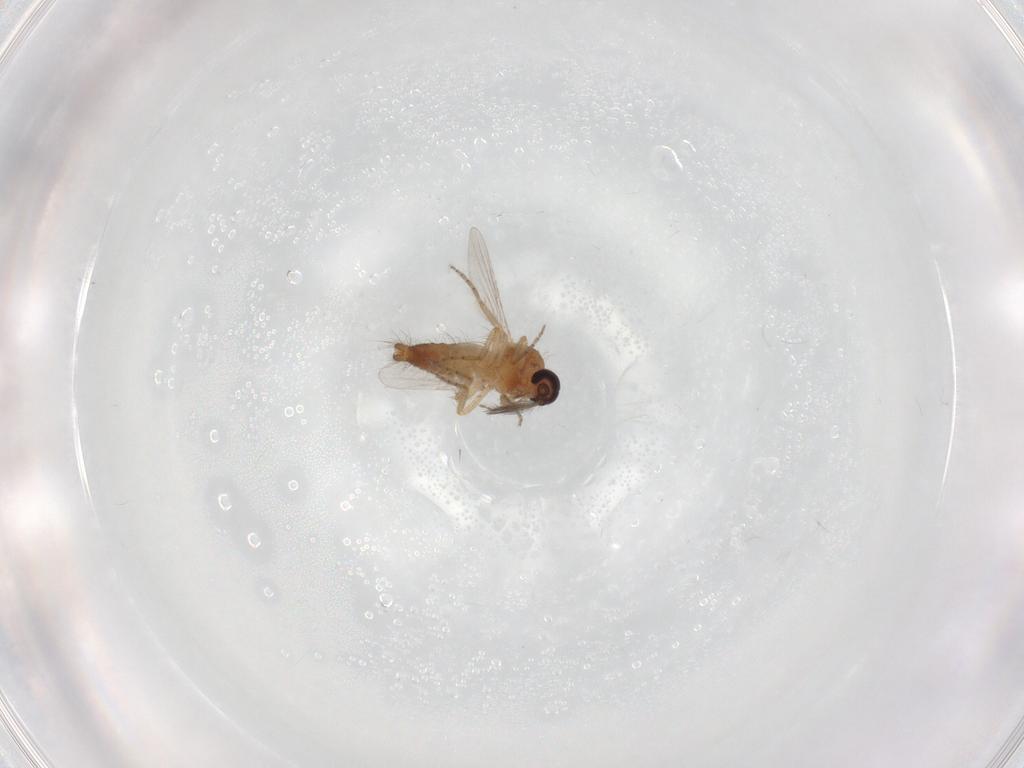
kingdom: Animalia
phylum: Arthropoda
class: Insecta
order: Diptera
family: Ceratopogonidae
